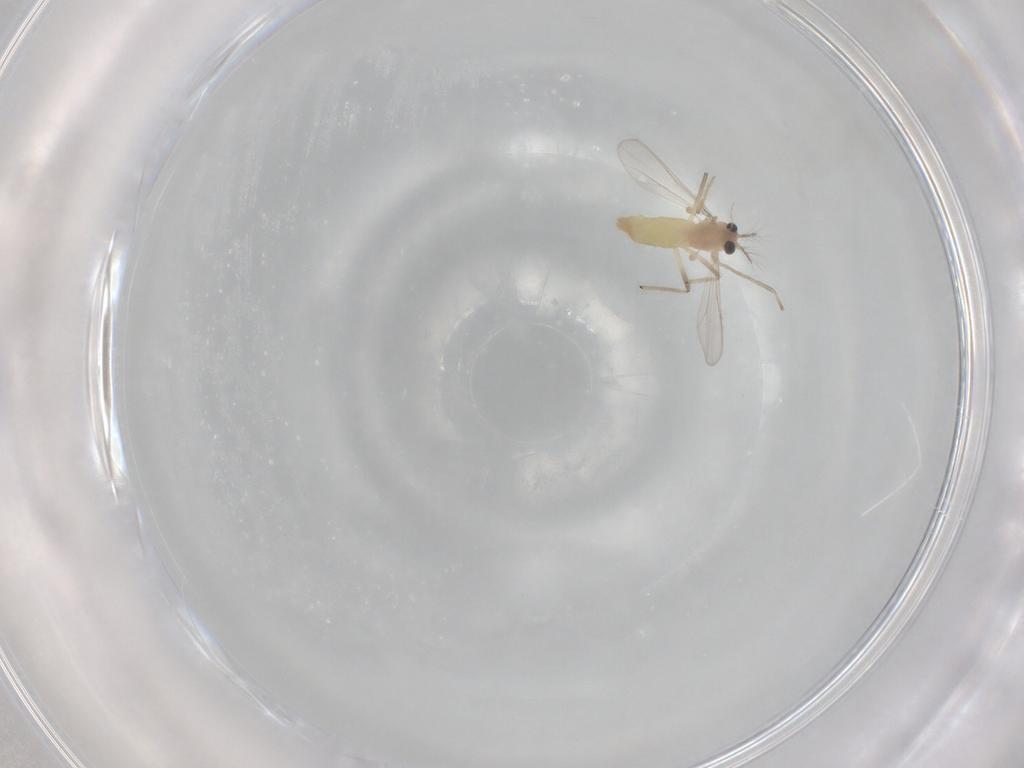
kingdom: Animalia
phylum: Arthropoda
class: Insecta
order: Diptera
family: Chironomidae
